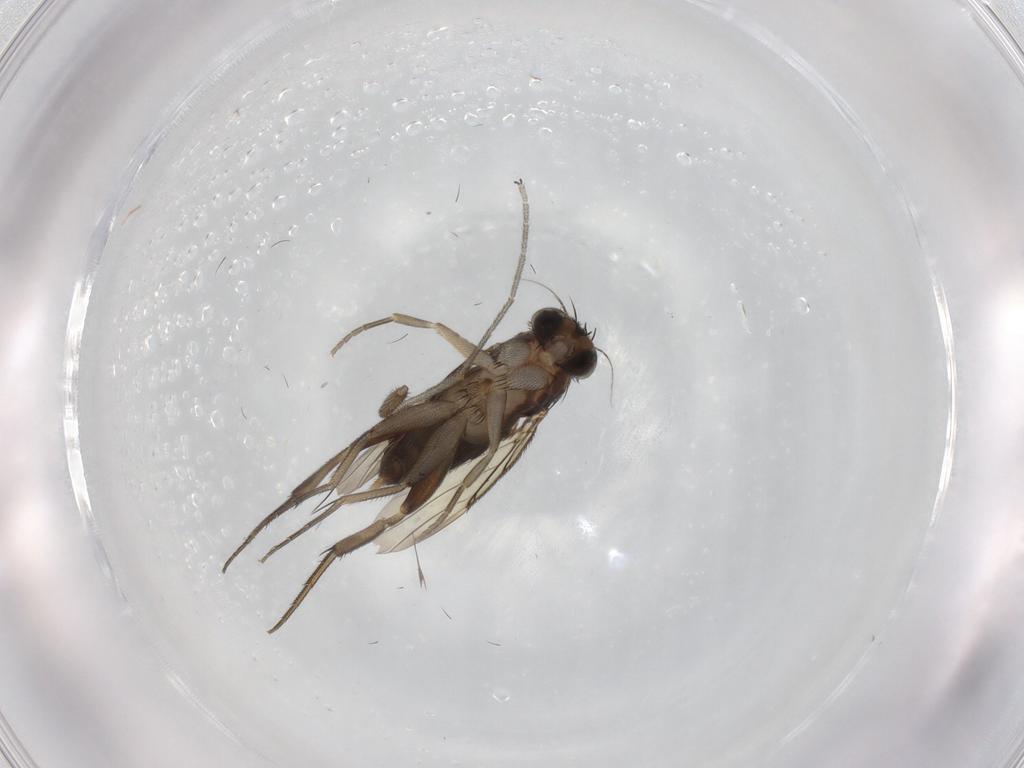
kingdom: Animalia
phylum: Arthropoda
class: Insecta
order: Diptera
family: Phoridae
